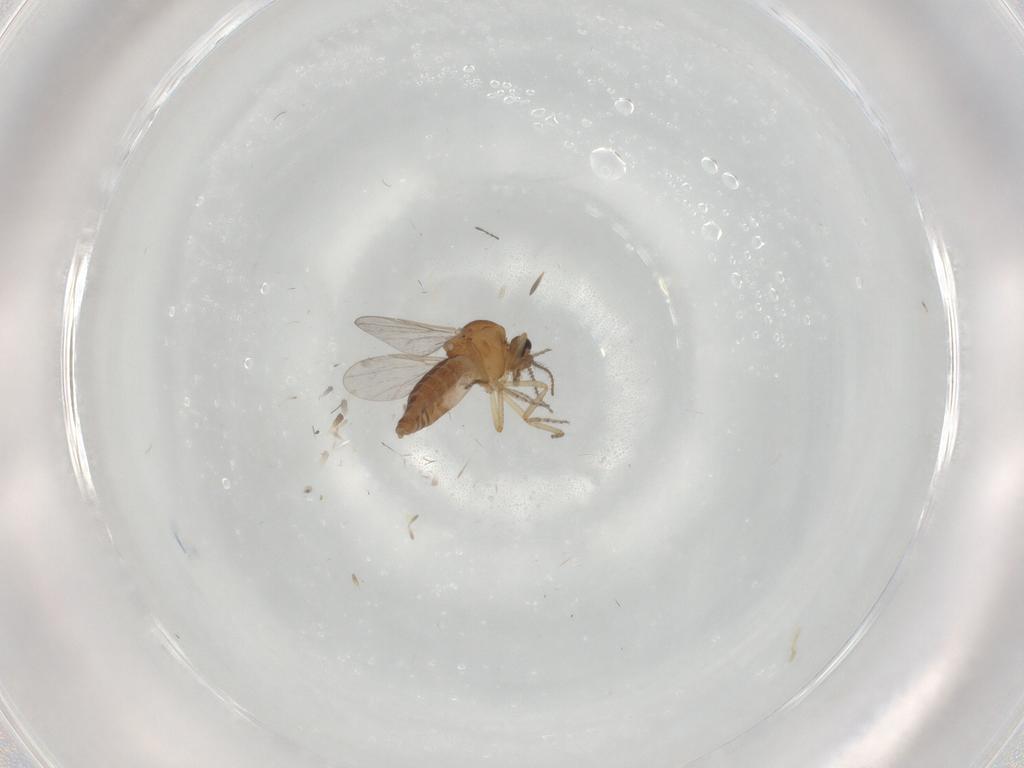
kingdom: Animalia
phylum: Arthropoda
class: Insecta
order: Diptera
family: Ceratopogonidae
